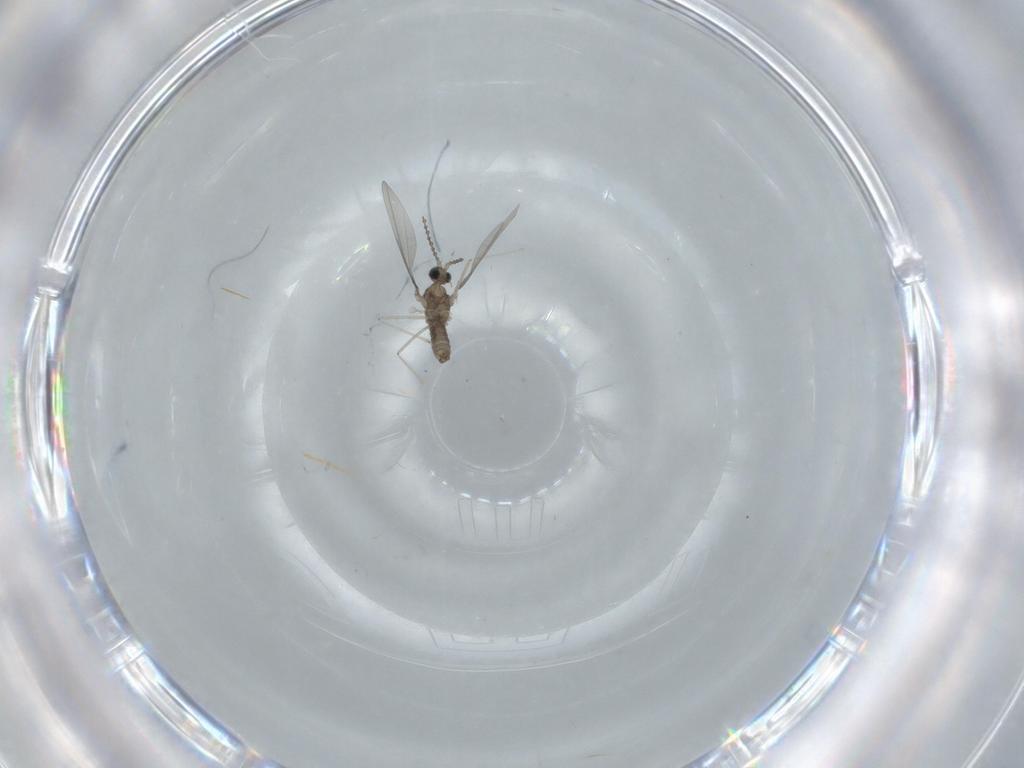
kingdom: Animalia
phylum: Arthropoda
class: Insecta
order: Diptera
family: Cecidomyiidae
